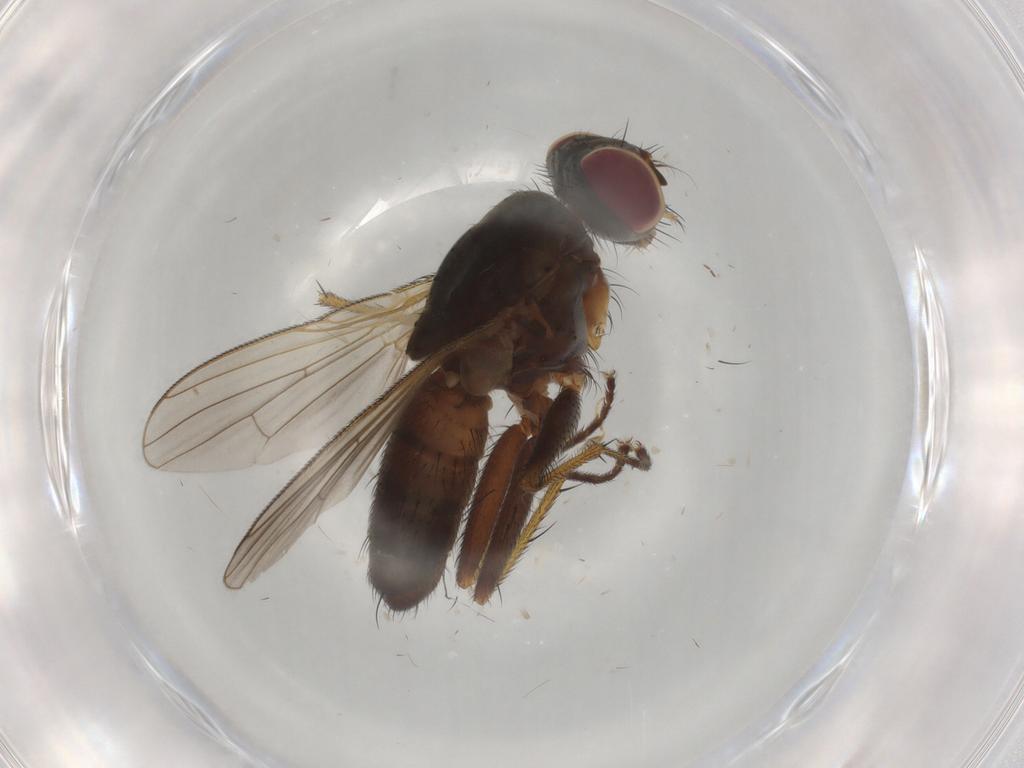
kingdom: Animalia
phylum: Arthropoda
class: Insecta
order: Diptera
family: Muscidae
